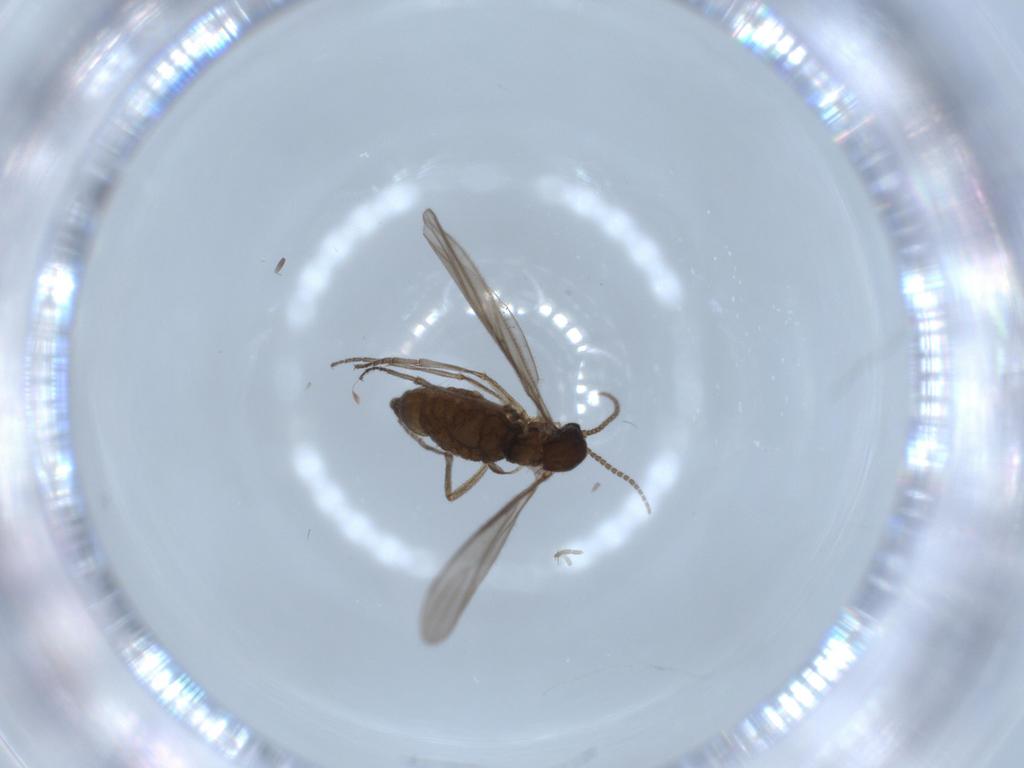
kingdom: Animalia
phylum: Arthropoda
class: Insecta
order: Diptera
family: Sciaridae
